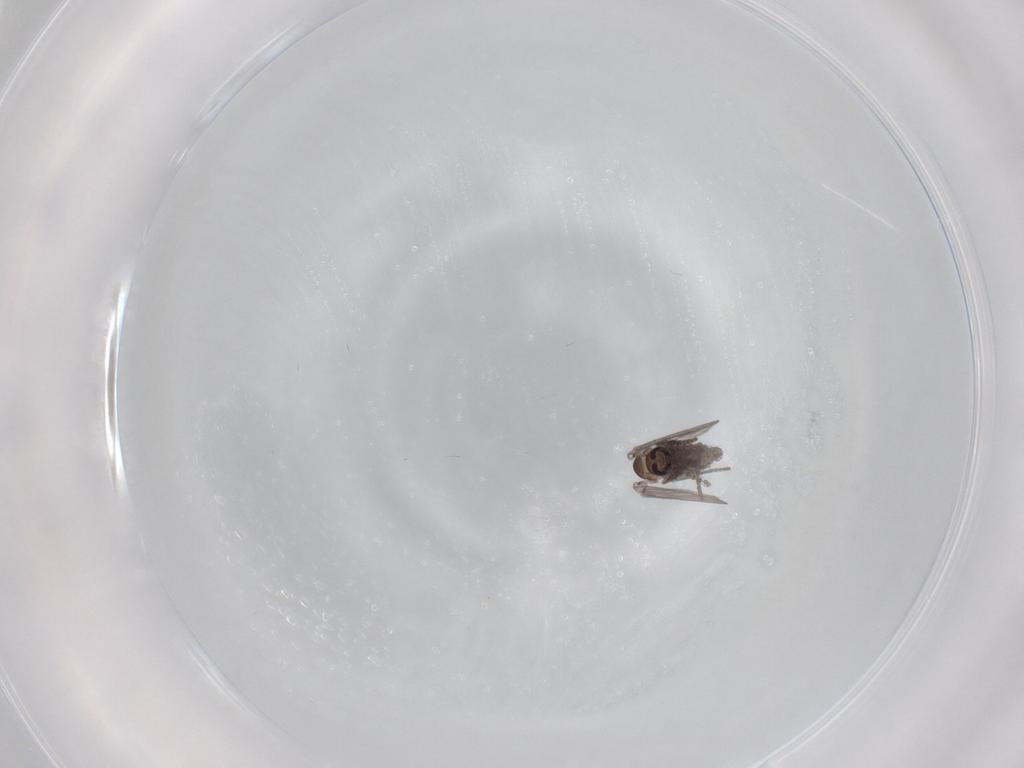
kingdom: Animalia
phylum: Arthropoda
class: Insecta
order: Diptera
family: Psychodidae
